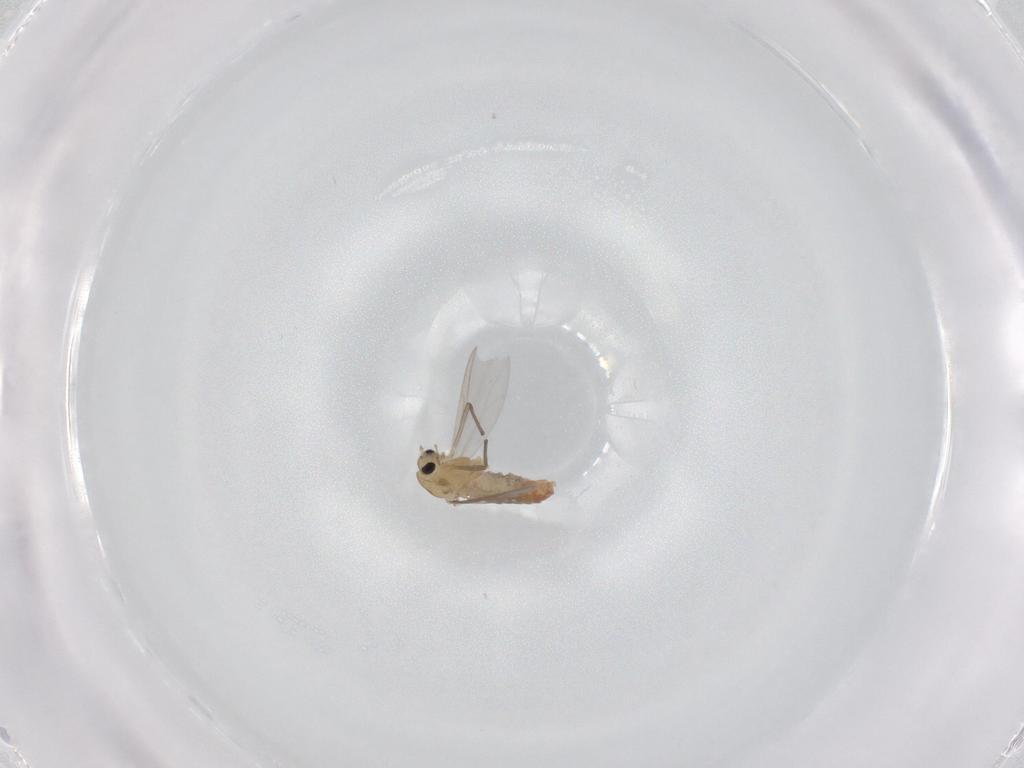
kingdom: Animalia
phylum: Arthropoda
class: Insecta
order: Diptera
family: Chironomidae
